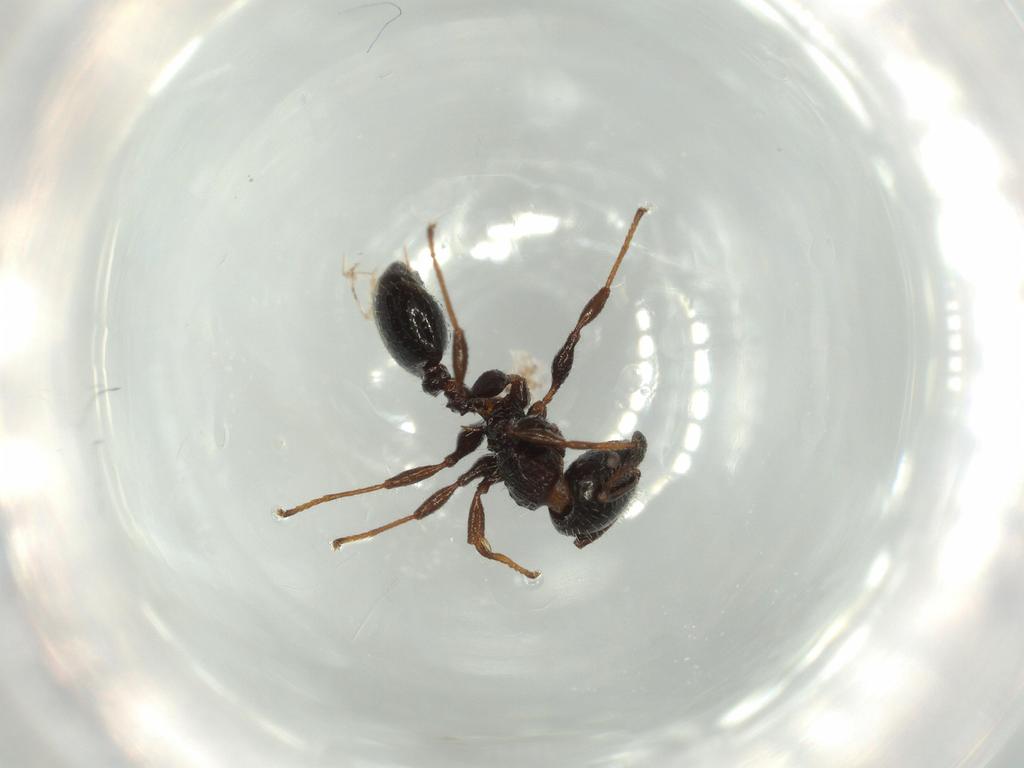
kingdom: Animalia
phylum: Arthropoda
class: Insecta
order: Hymenoptera
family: Formicidae
